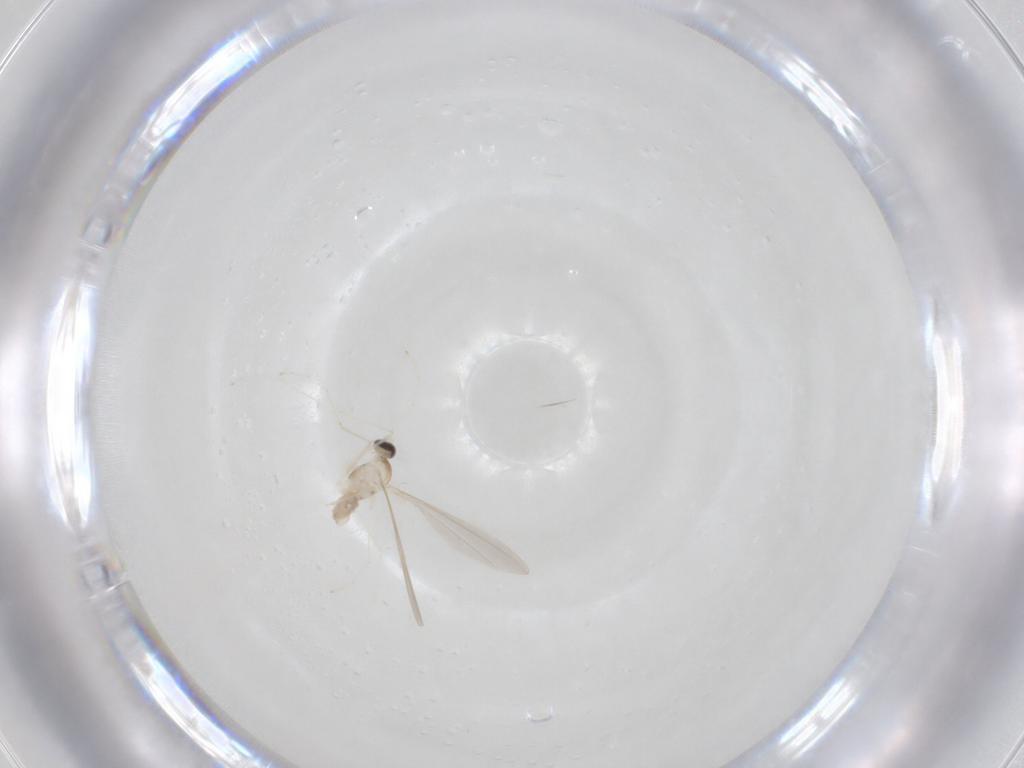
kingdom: Animalia
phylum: Arthropoda
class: Insecta
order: Diptera
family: Cecidomyiidae
